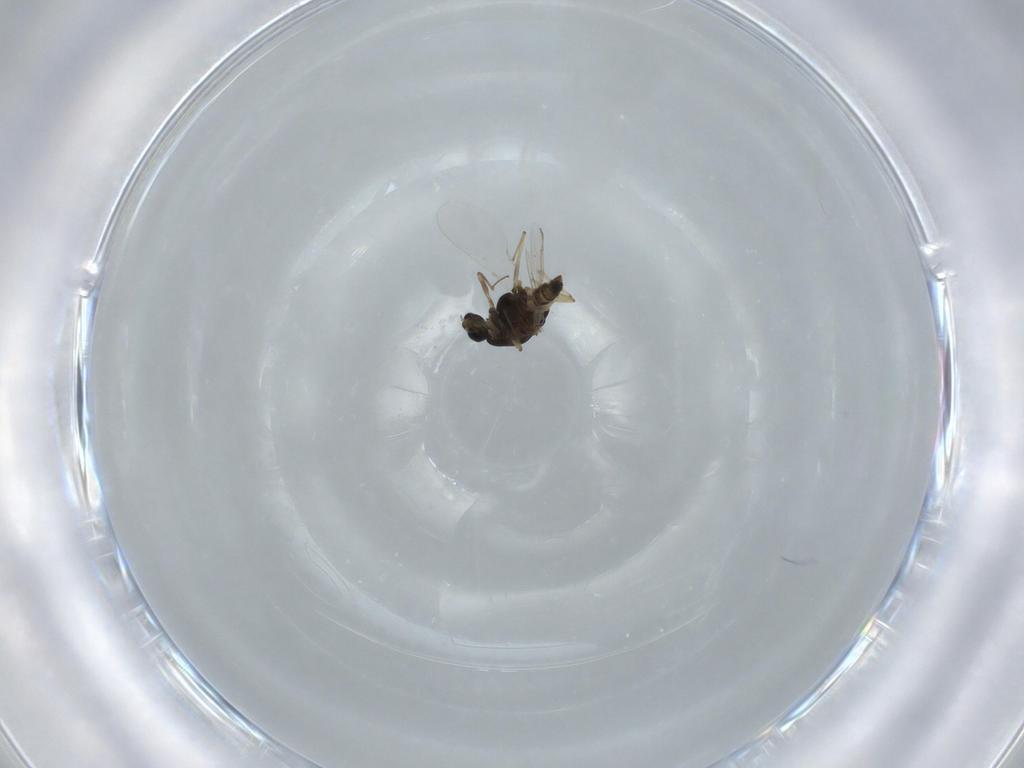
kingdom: Animalia
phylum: Arthropoda
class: Insecta
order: Diptera
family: Chironomidae
